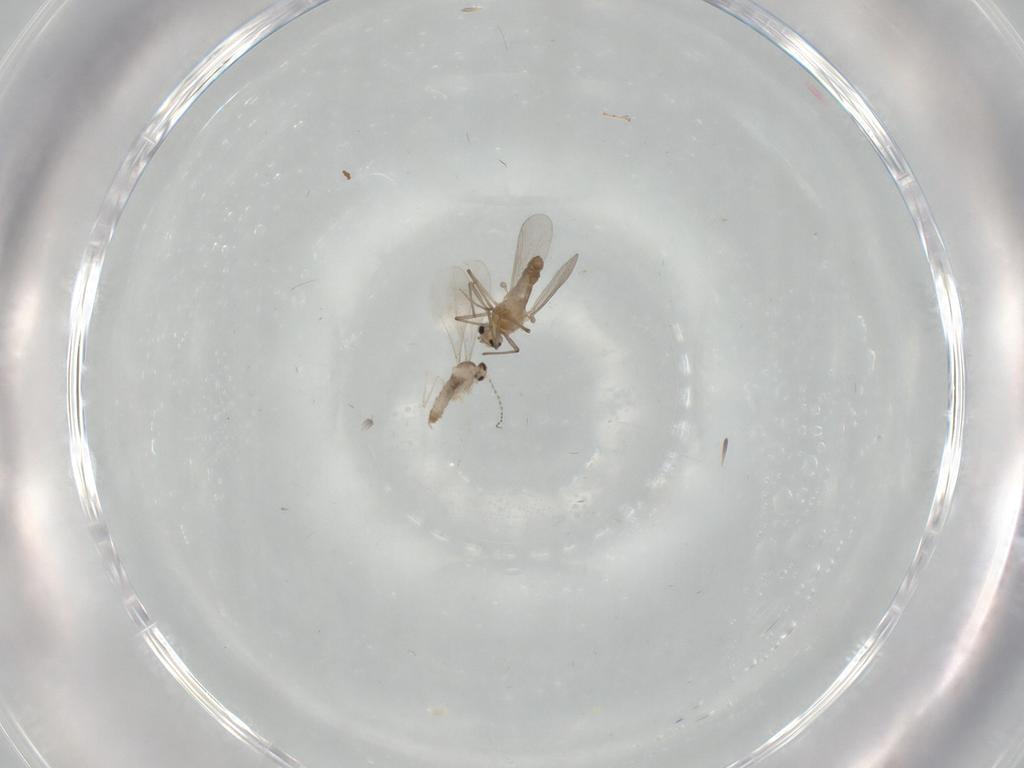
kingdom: Animalia
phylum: Arthropoda
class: Insecta
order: Diptera
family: Cecidomyiidae
